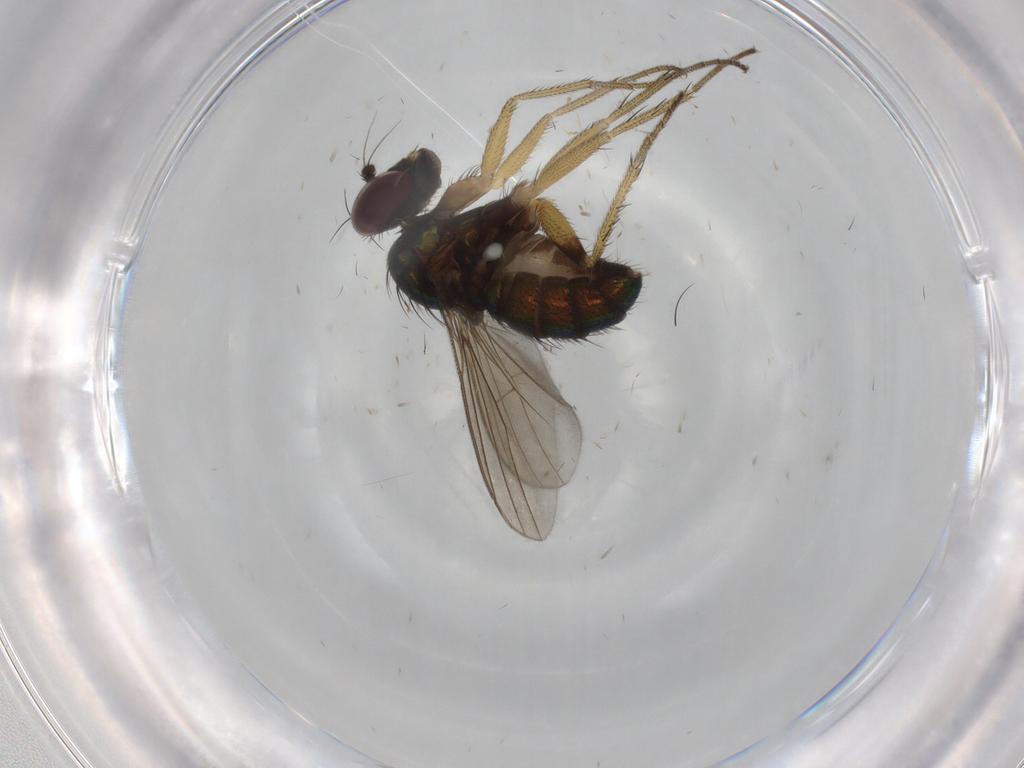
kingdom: Animalia
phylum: Arthropoda
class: Insecta
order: Diptera
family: Dolichopodidae
